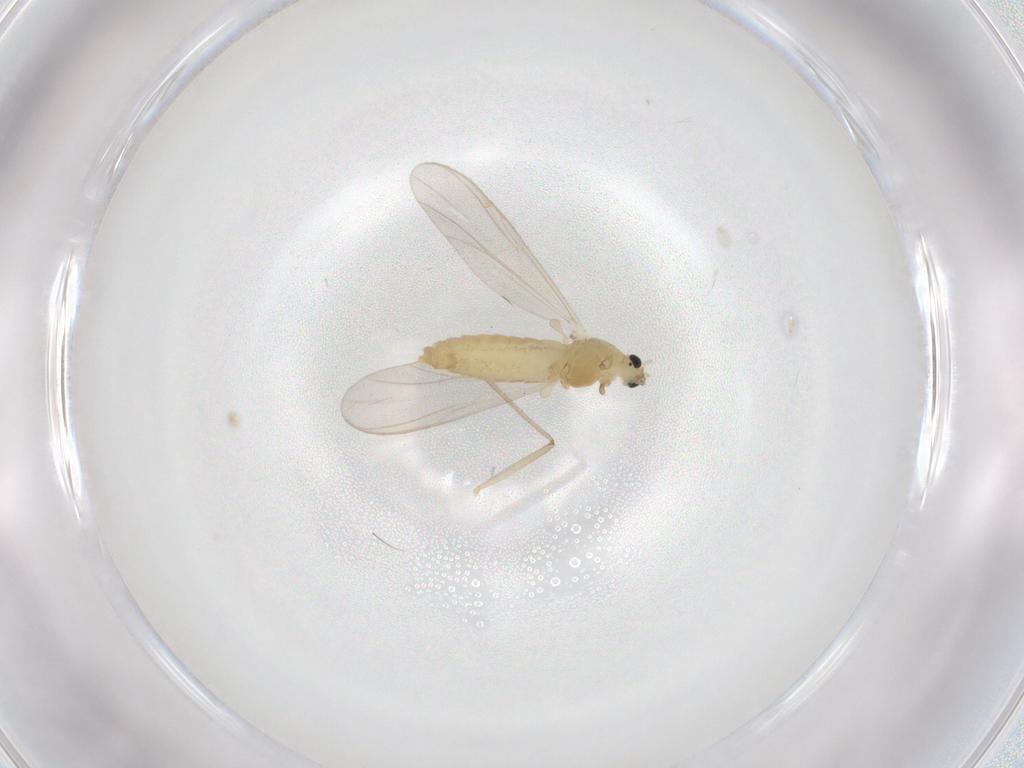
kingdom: Animalia
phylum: Arthropoda
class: Insecta
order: Diptera
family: Chironomidae
